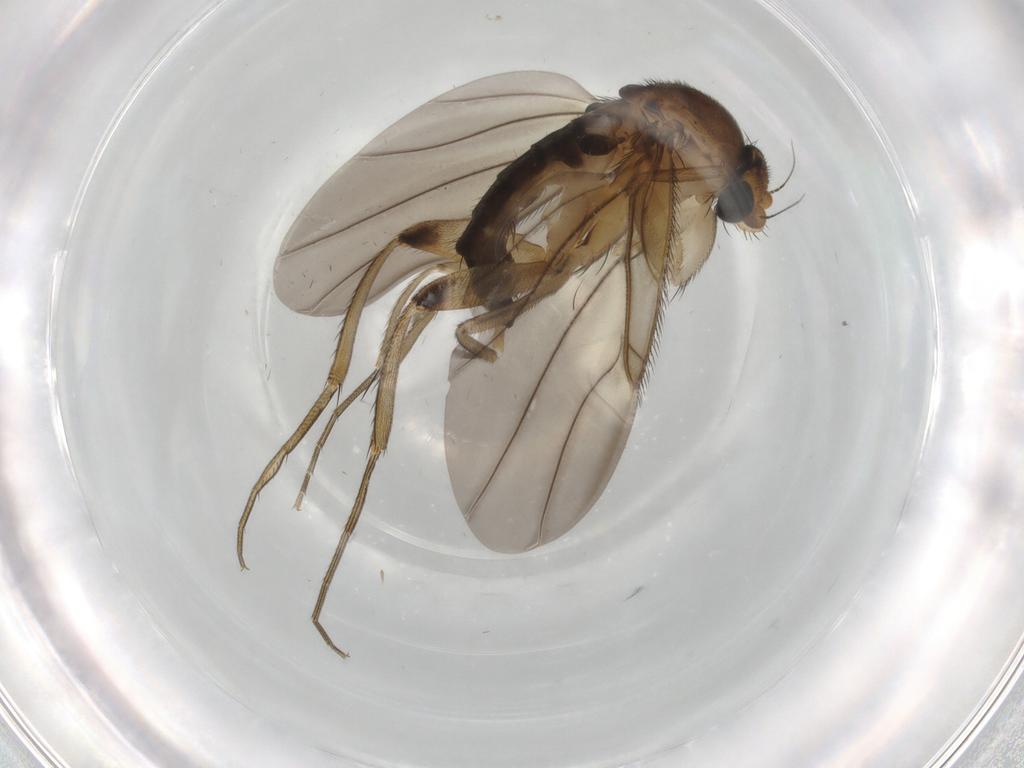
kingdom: Animalia
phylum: Arthropoda
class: Insecta
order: Diptera
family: Phoridae
